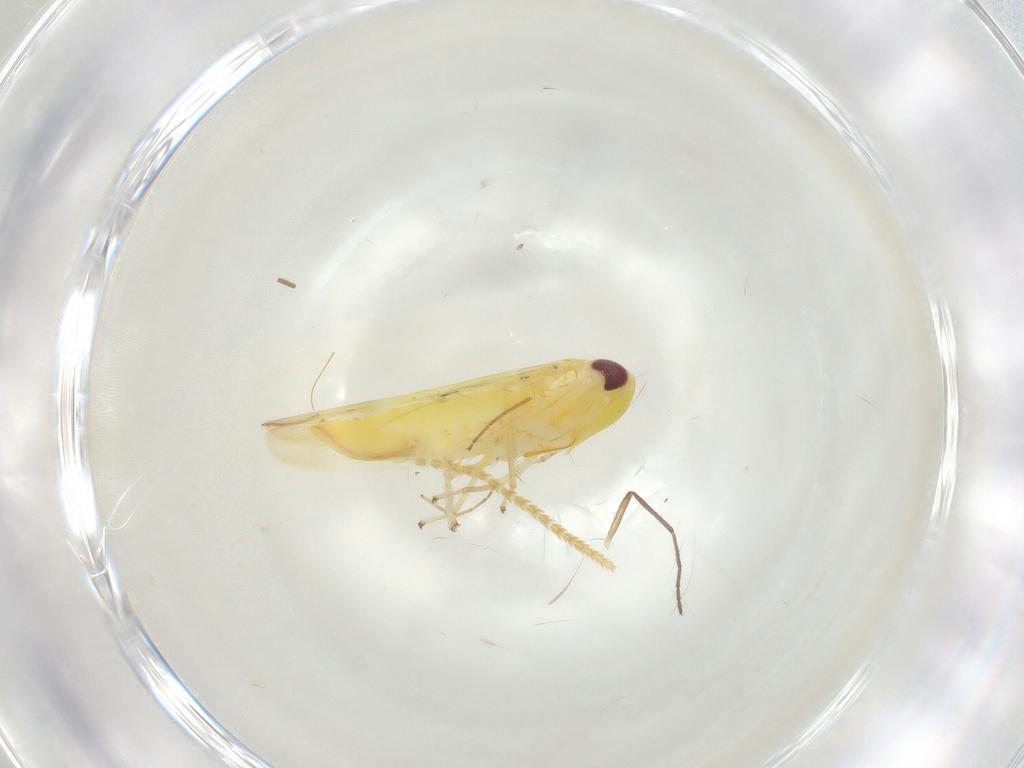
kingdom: Animalia
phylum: Arthropoda
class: Insecta
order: Hemiptera
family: Cicadellidae
